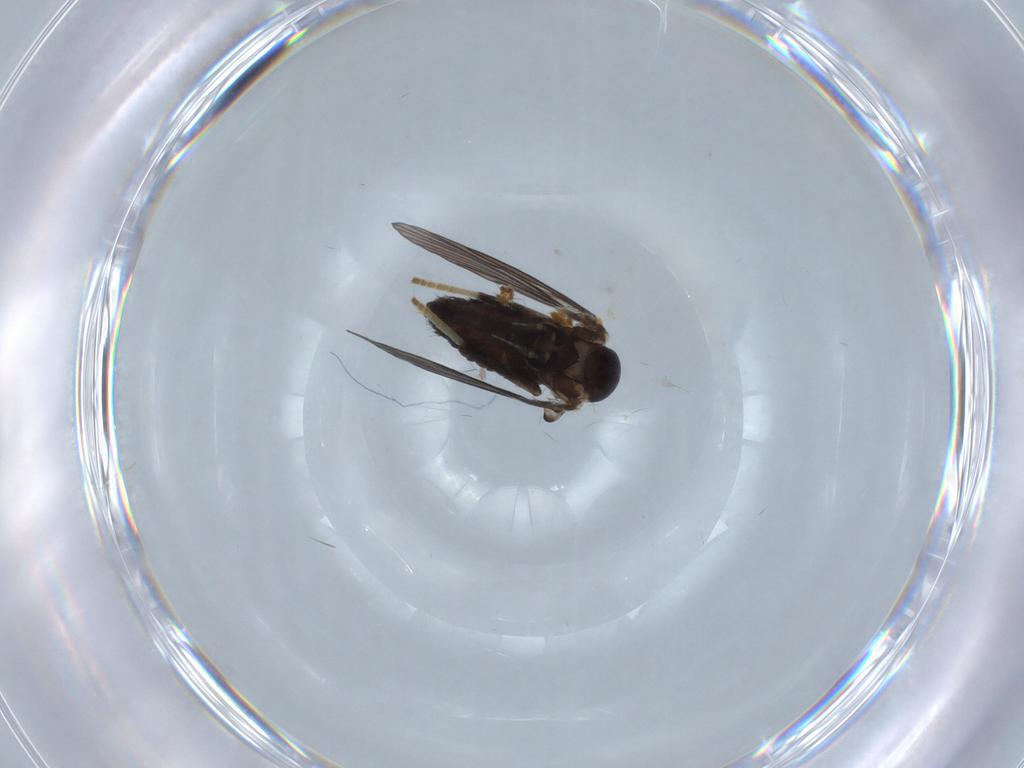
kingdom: Animalia
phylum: Arthropoda
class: Insecta
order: Diptera
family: Psychodidae
